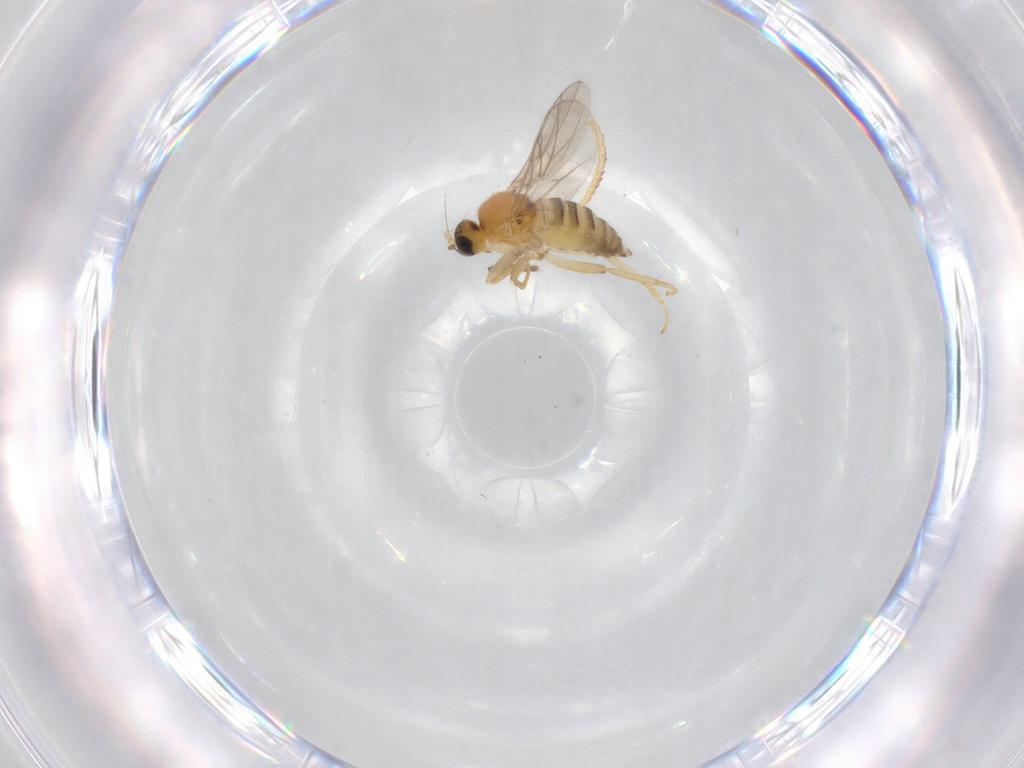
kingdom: Animalia
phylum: Arthropoda
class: Insecta
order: Diptera
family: Hybotidae
